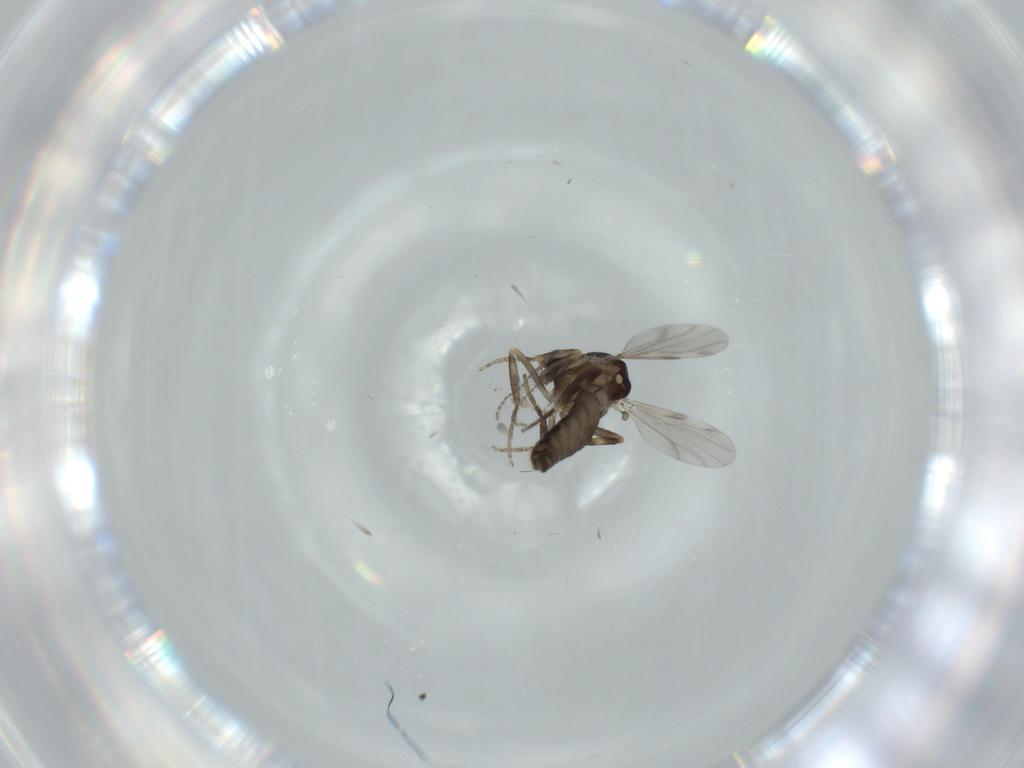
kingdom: Animalia
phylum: Arthropoda
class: Insecta
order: Diptera
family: Ceratopogonidae
